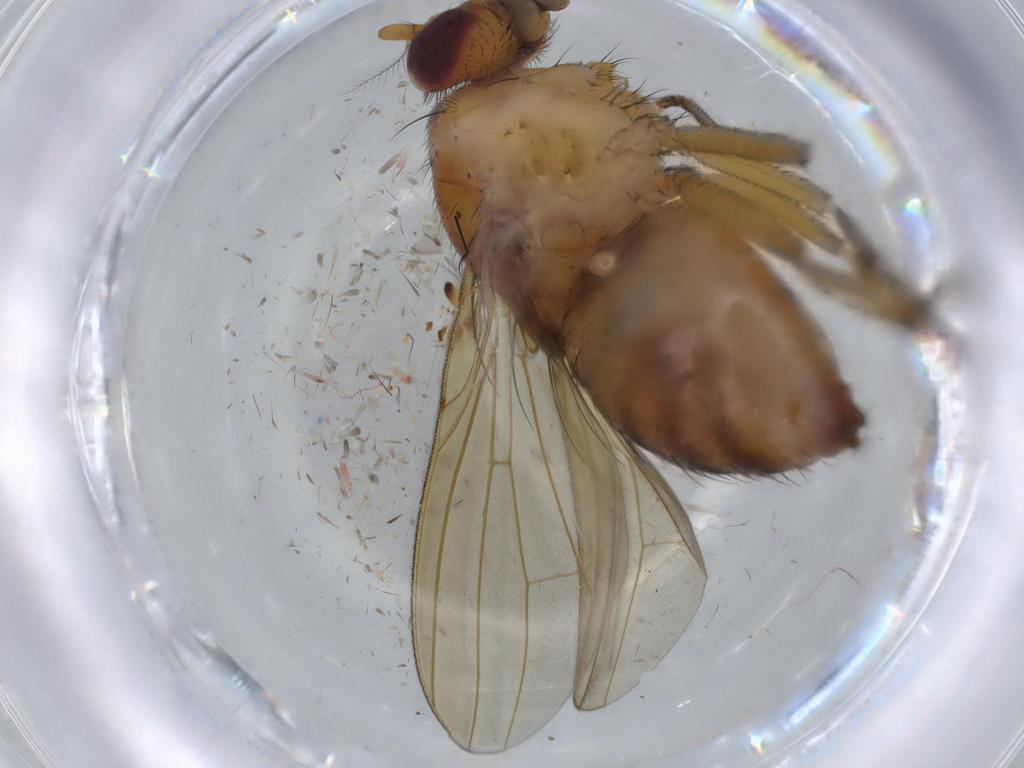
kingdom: Animalia
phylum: Arthropoda
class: Insecta
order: Diptera
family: Lauxaniidae
